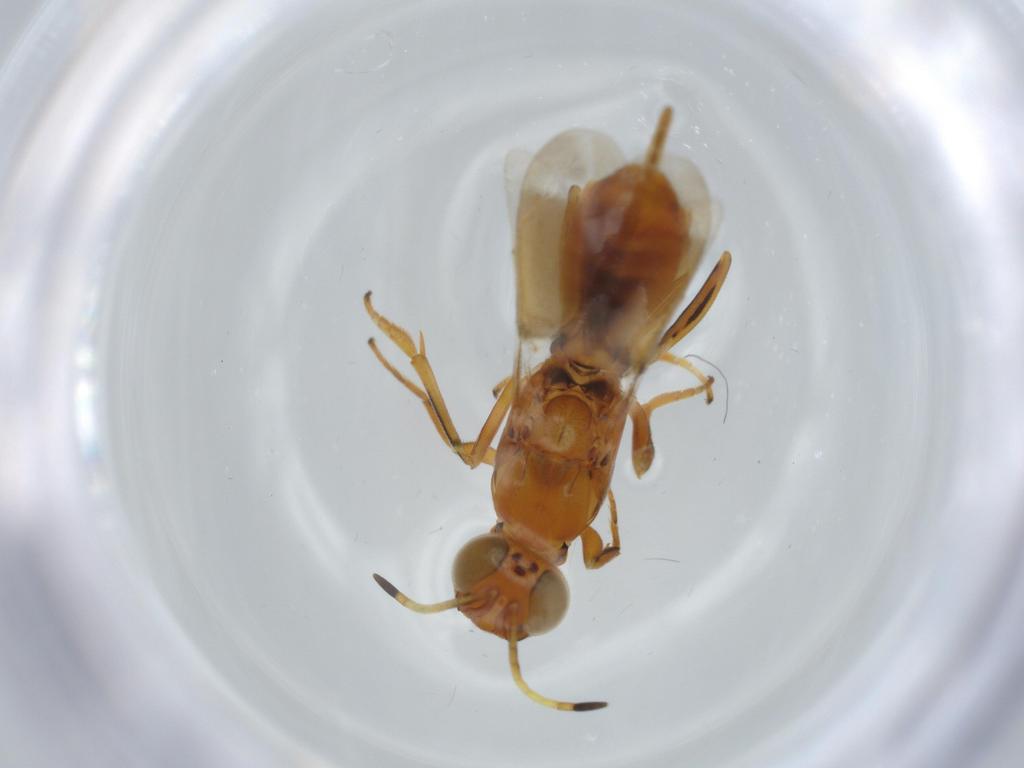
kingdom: Animalia
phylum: Arthropoda
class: Insecta
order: Hymenoptera
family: Eupelmidae
